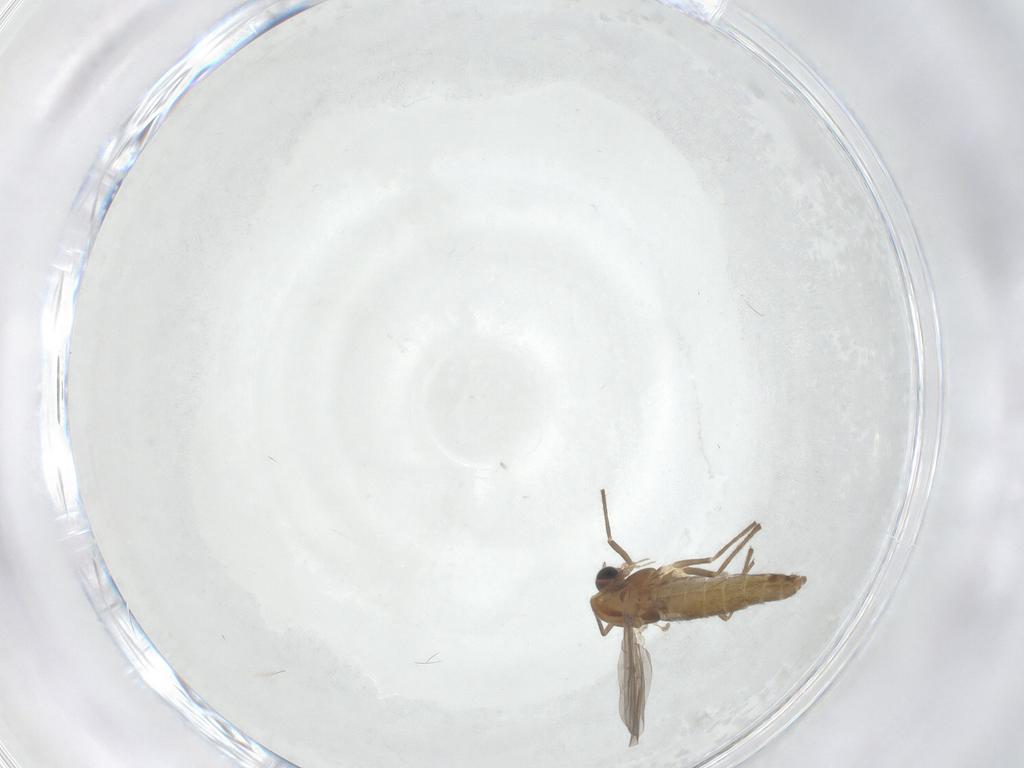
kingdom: Animalia
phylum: Arthropoda
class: Insecta
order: Diptera
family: Chironomidae
